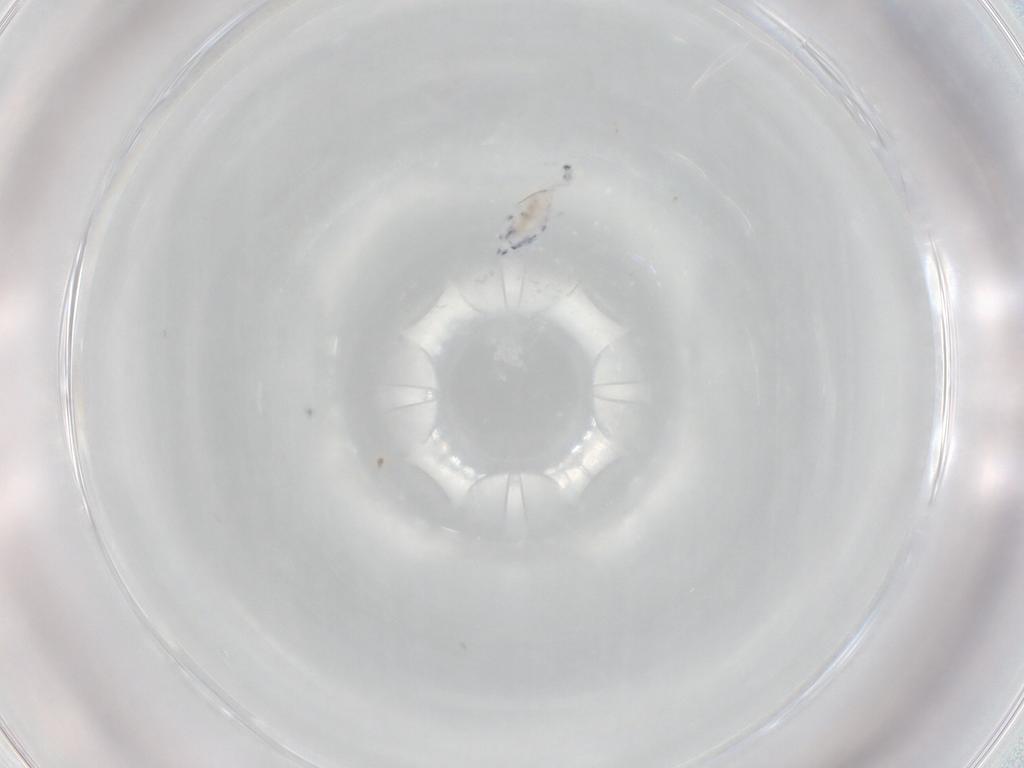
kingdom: Animalia
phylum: Arthropoda
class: Collembola
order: Entomobryomorpha
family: Entomobryidae
